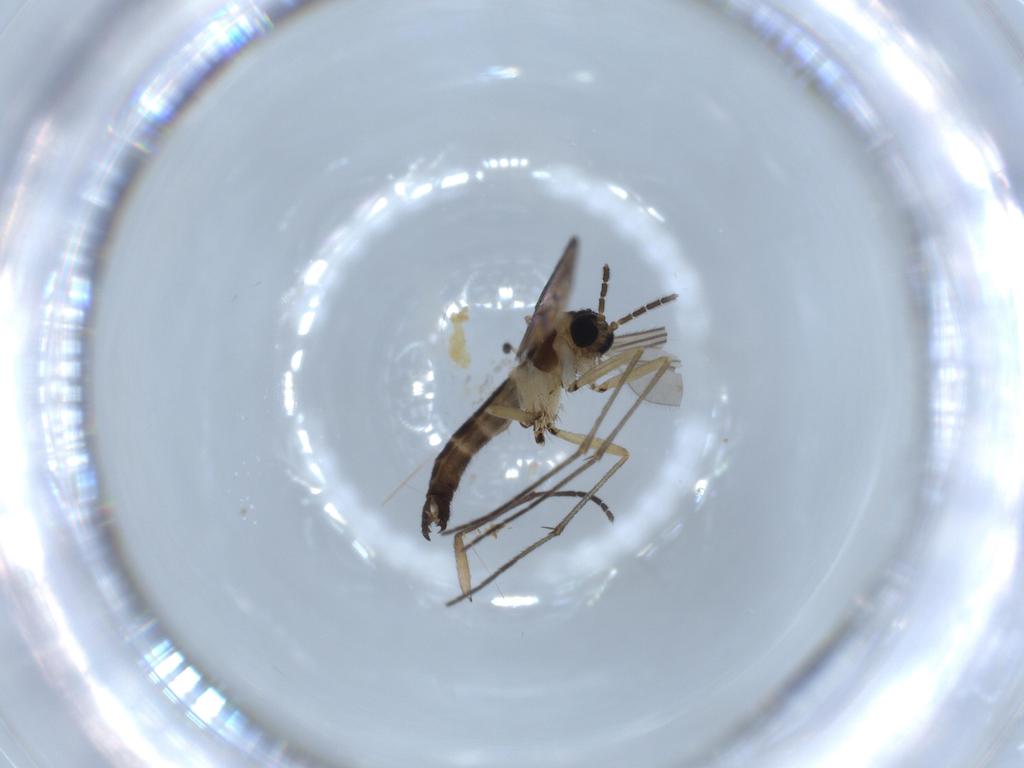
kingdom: Animalia
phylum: Arthropoda
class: Insecta
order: Diptera
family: Sciaridae
